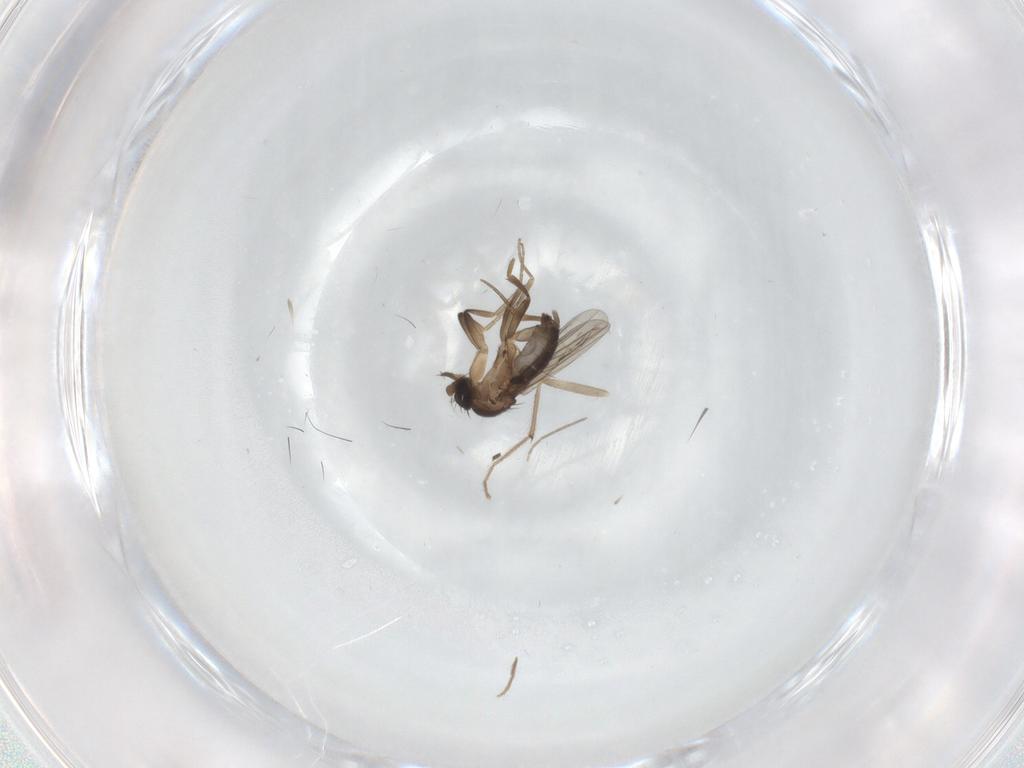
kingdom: Animalia
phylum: Arthropoda
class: Insecta
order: Diptera
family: Phoridae
